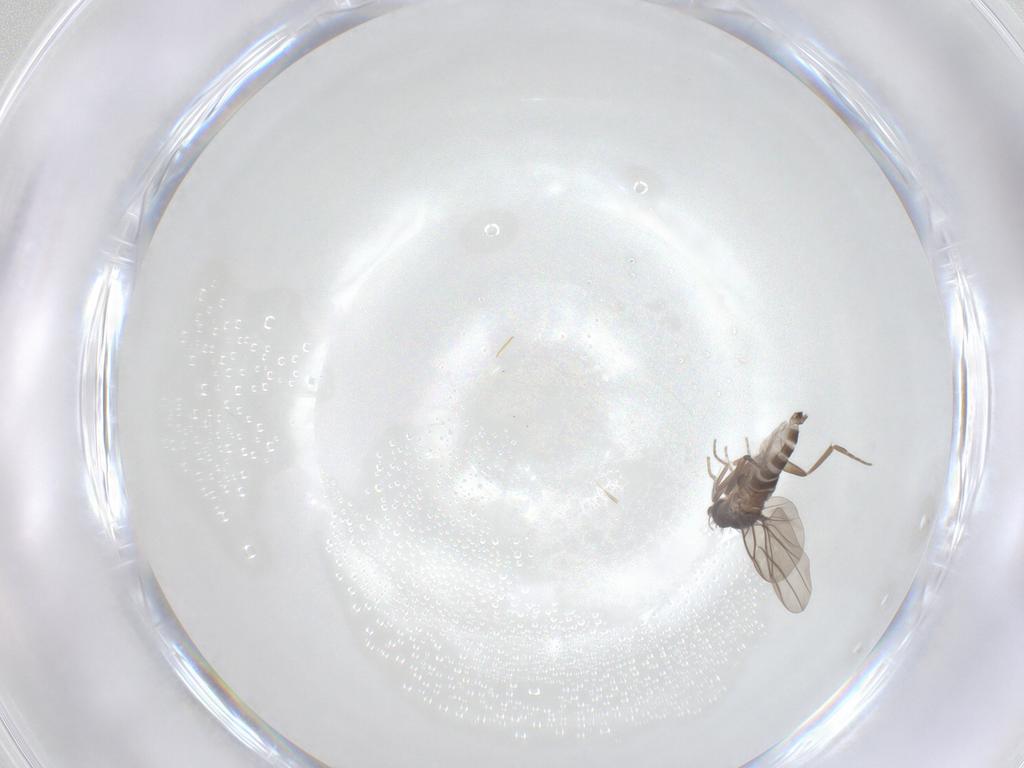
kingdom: Animalia
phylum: Arthropoda
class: Insecta
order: Diptera
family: Phoridae
